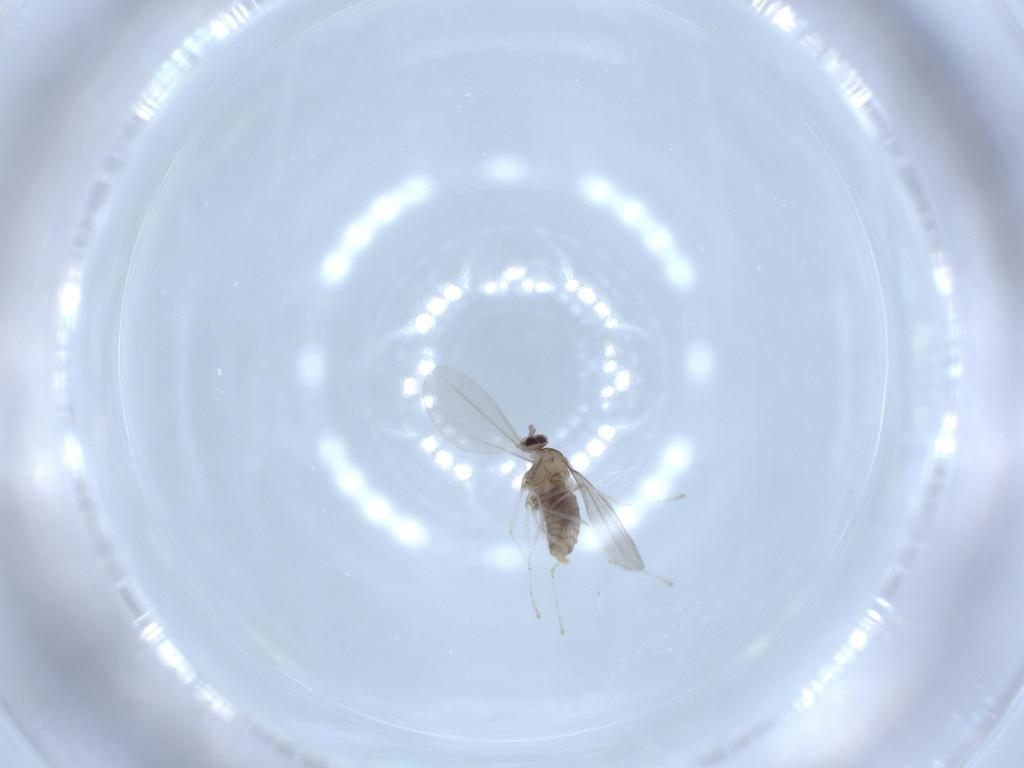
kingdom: Animalia
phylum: Arthropoda
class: Insecta
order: Diptera
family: Cecidomyiidae
